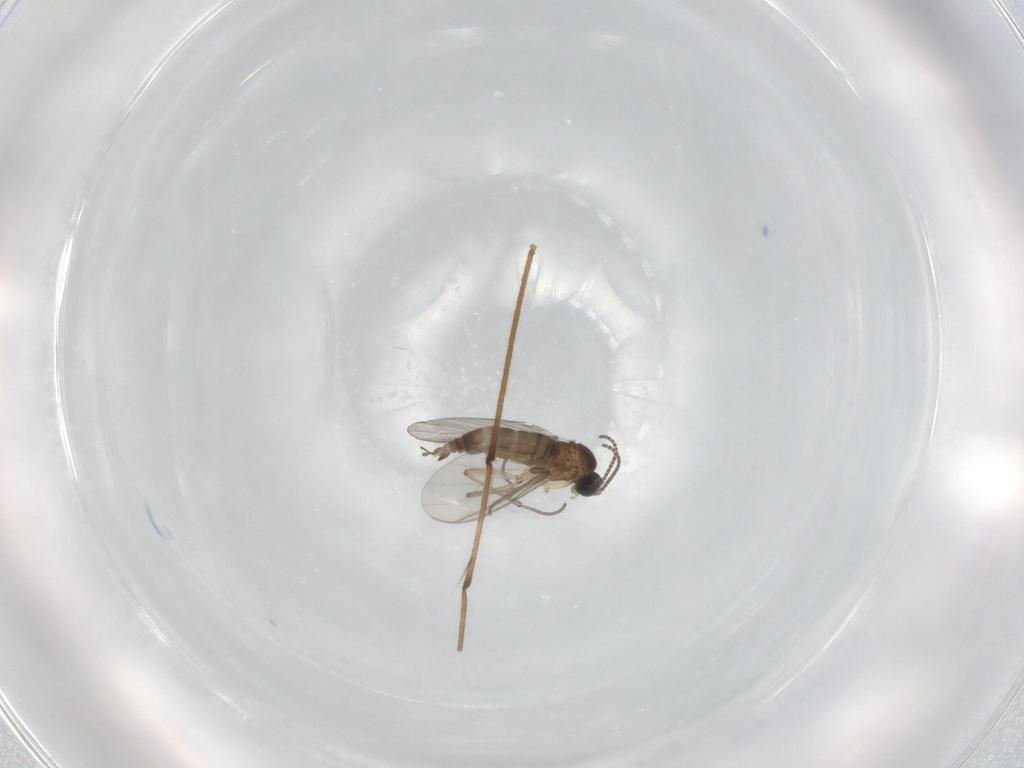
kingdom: Animalia
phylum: Arthropoda
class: Insecta
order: Diptera
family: Chironomidae
